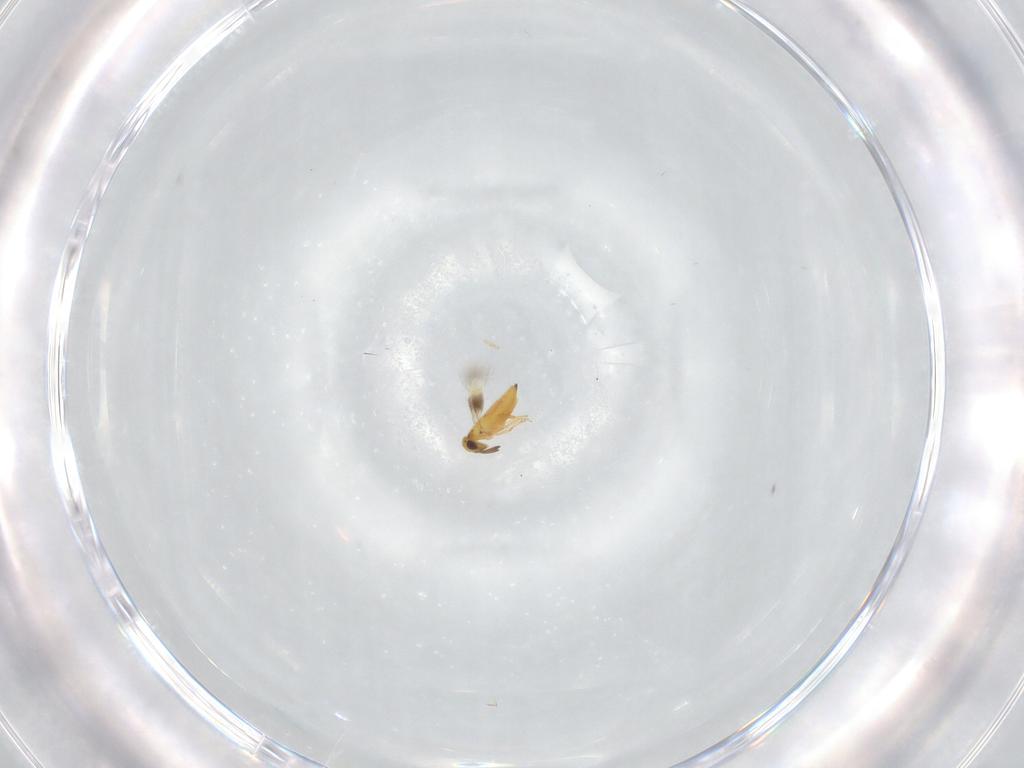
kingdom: Animalia
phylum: Arthropoda
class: Insecta
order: Hymenoptera
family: Signiphoridae
